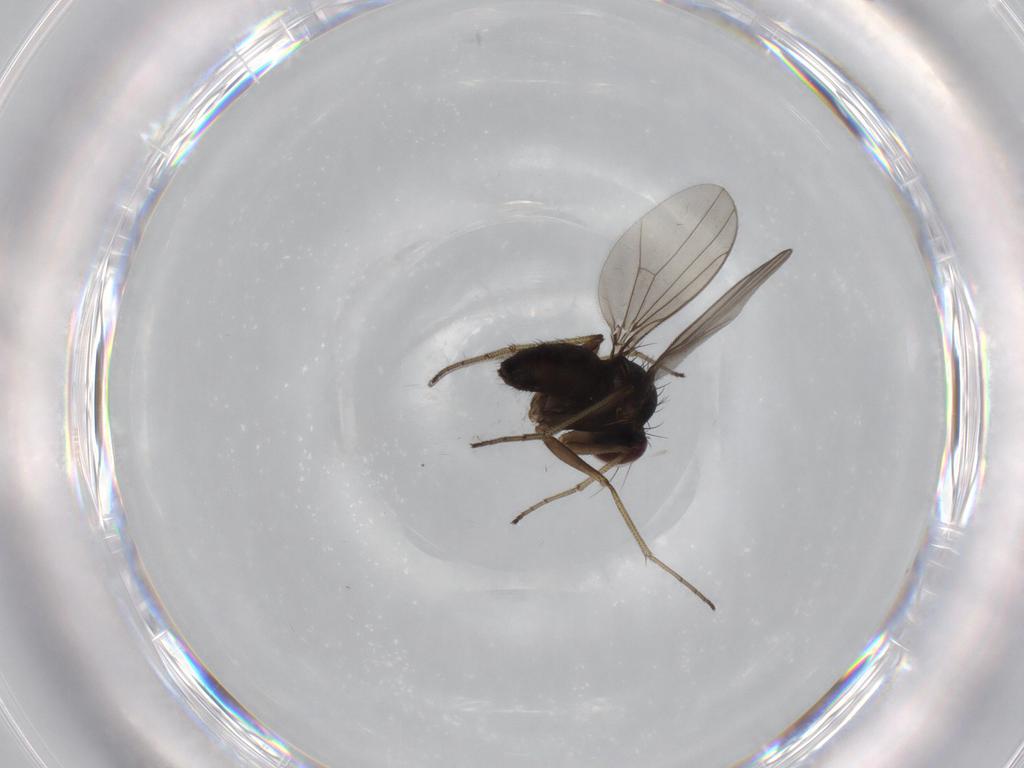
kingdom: Animalia
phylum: Arthropoda
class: Insecta
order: Diptera
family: Dolichopodidae
